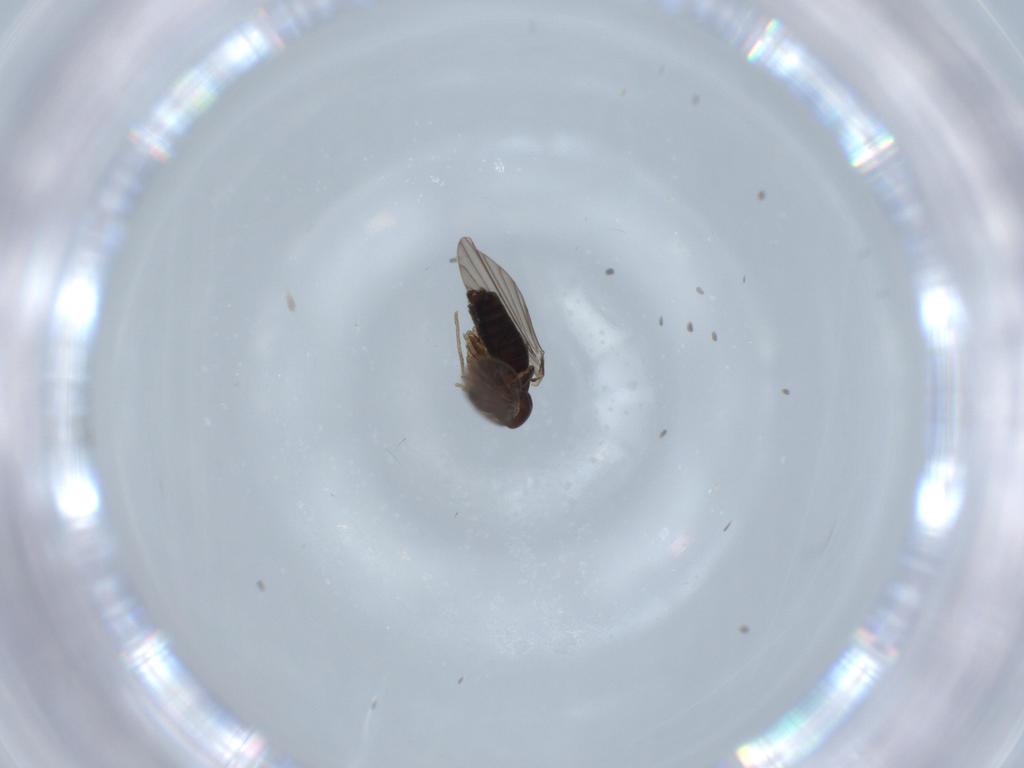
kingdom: Animalia
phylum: Arthropoda
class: Insecta
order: Diptera
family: Psychodidae
